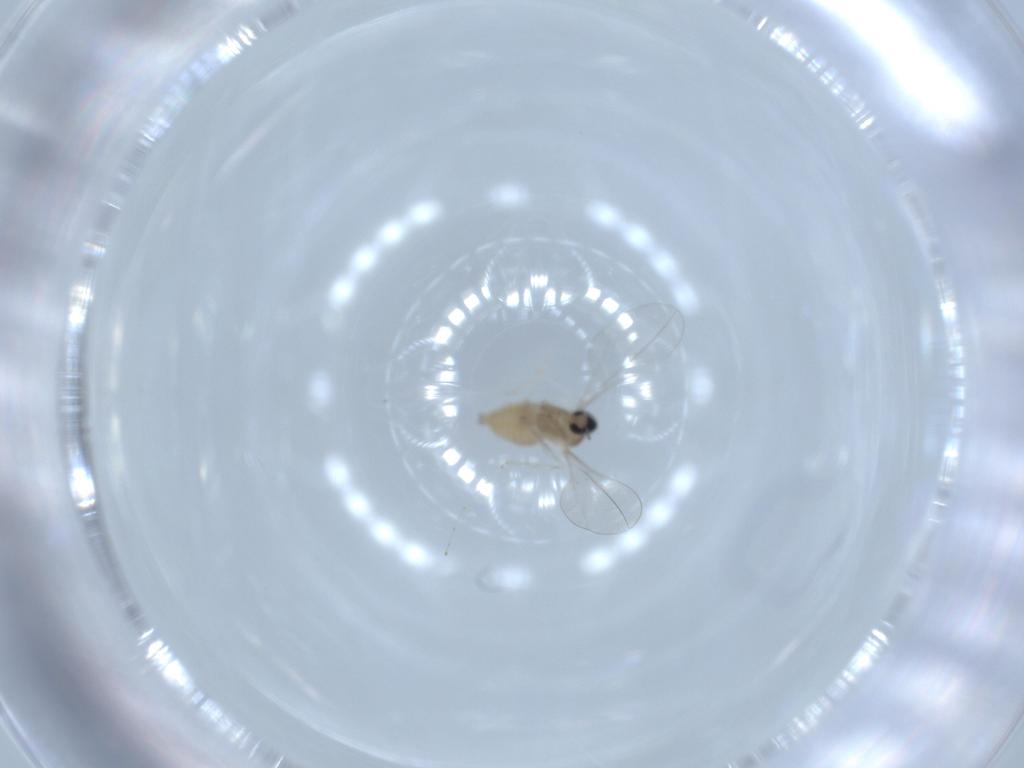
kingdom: Animalia
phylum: Arthropoda
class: Insecta
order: Diptera
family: Cecidomyiidae
